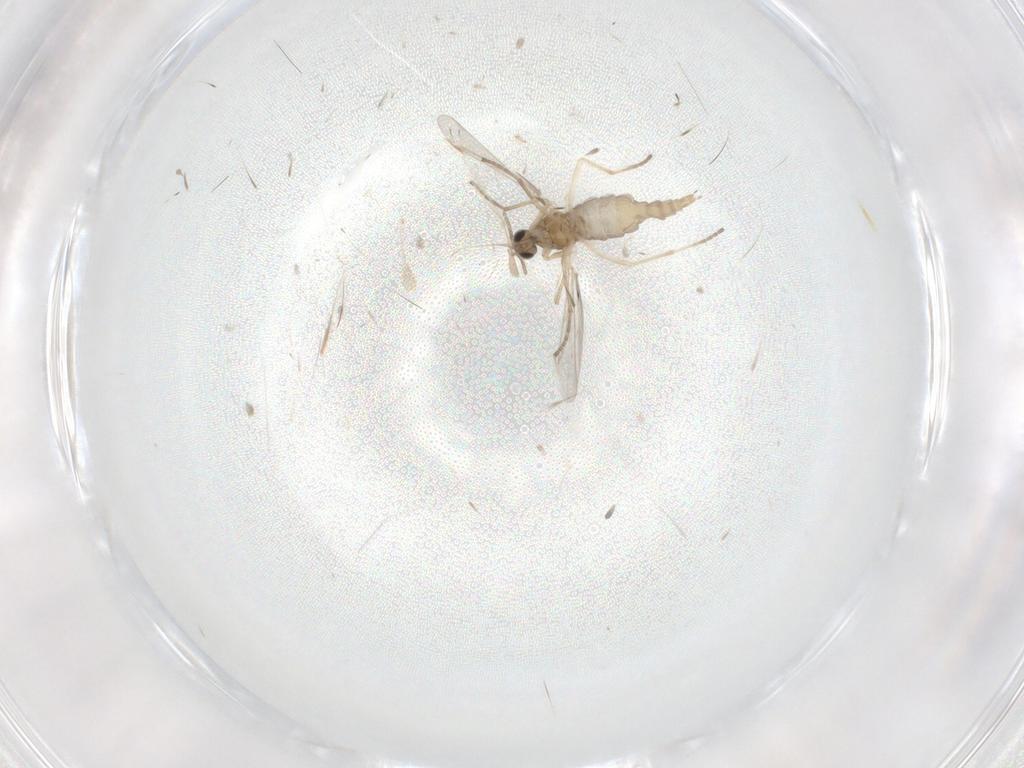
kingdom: Animalia
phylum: Arthropoda
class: Insecta
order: Diptera
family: Cecidomyiidae
